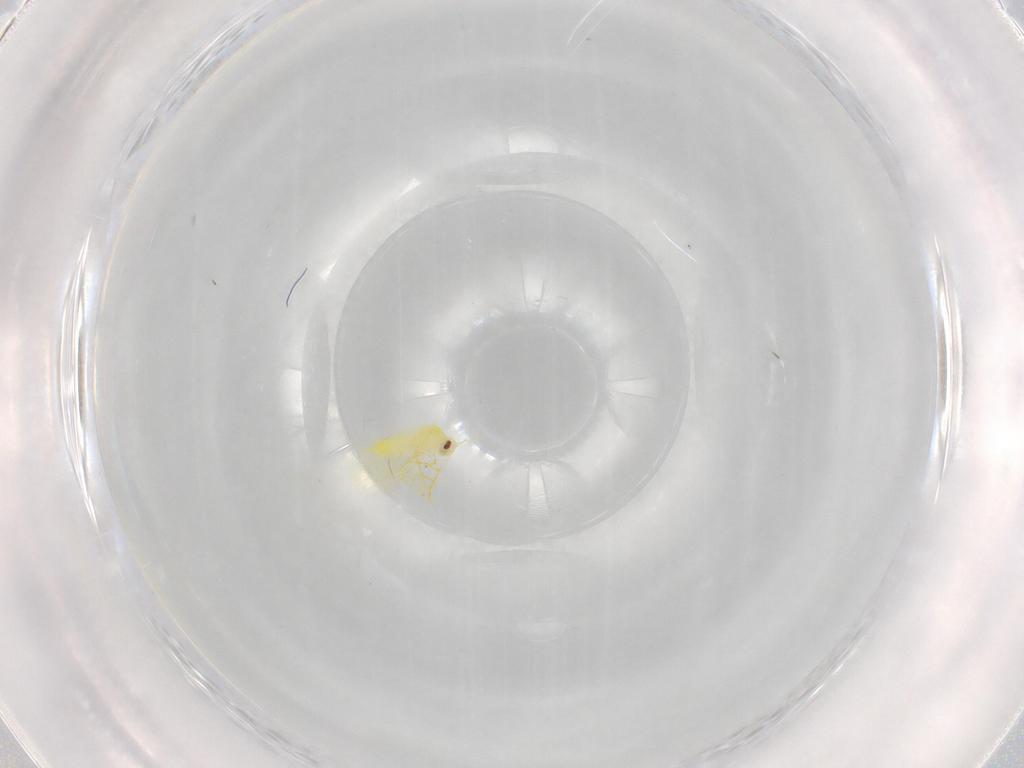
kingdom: Animalia
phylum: Arthropoda
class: Insecta
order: Hemiptera
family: Aleyrodidae
